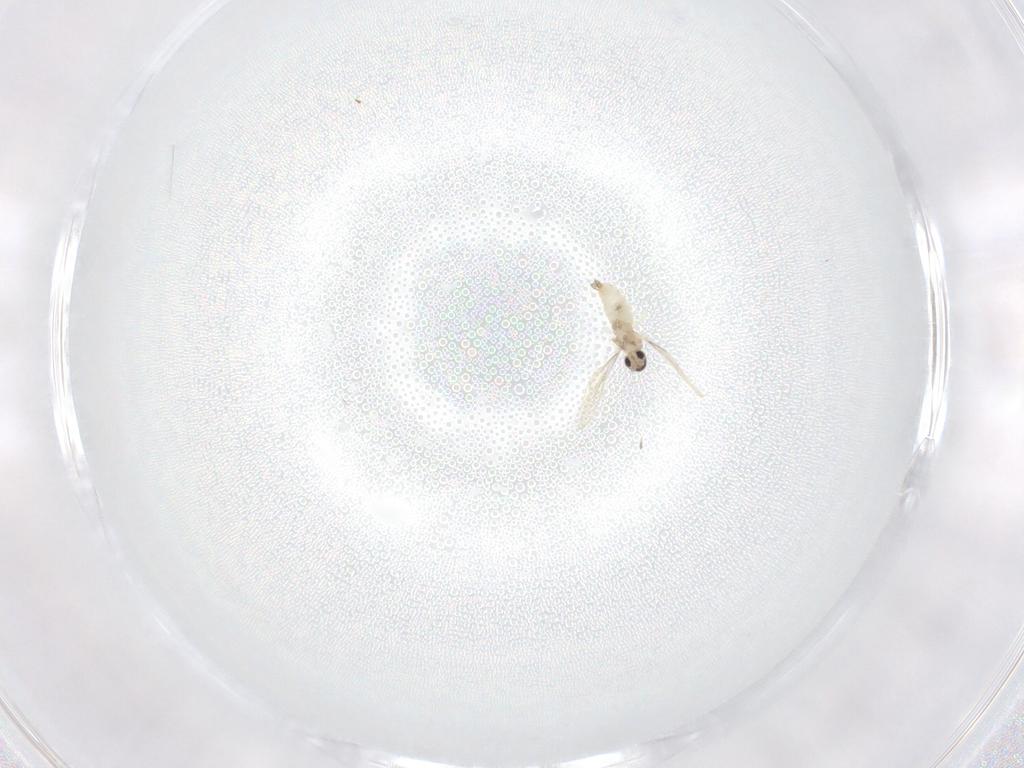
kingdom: Animalia
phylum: Arthropoda
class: Insecta
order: Diptera
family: Cecidomyiidae
